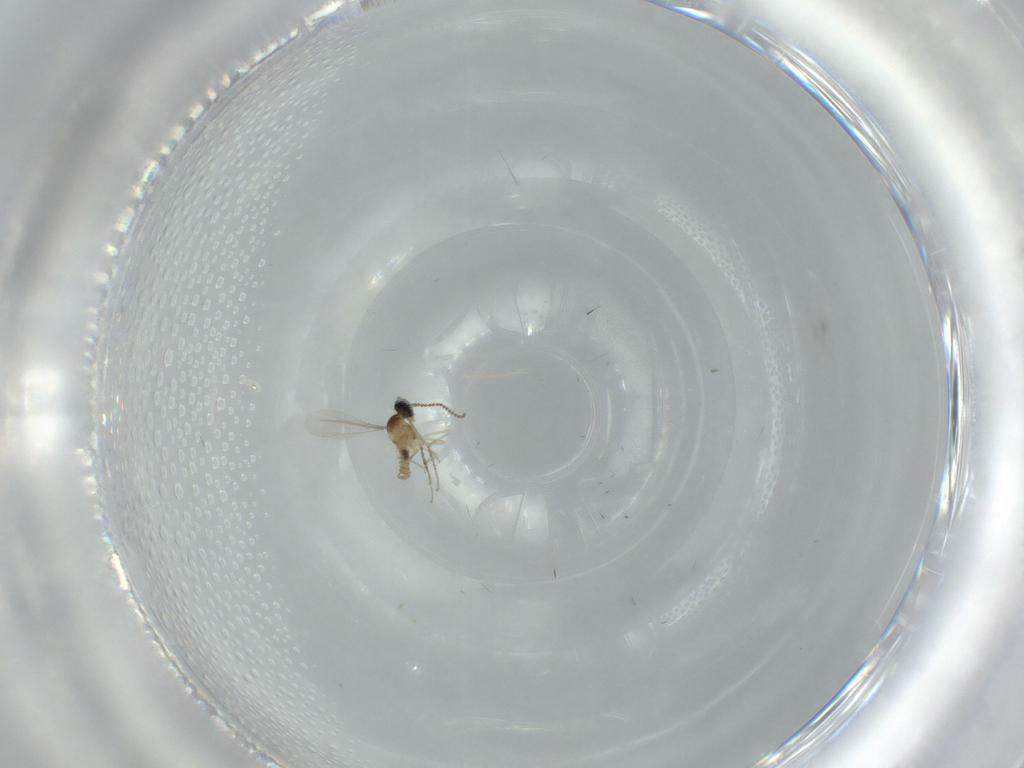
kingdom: Animalia
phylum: Arthropoda
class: Insecta
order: Diptera
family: Cecidomyiidae
